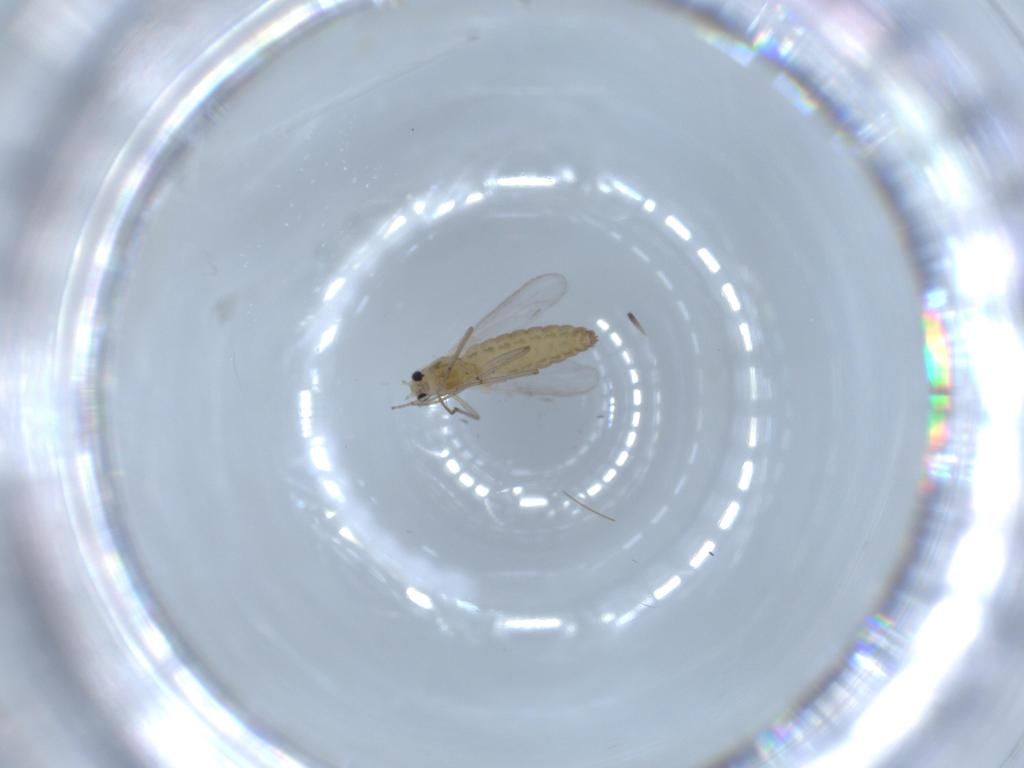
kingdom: Animalia
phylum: Arthropoda
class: Insecta
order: Diptera
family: Chironomidae
